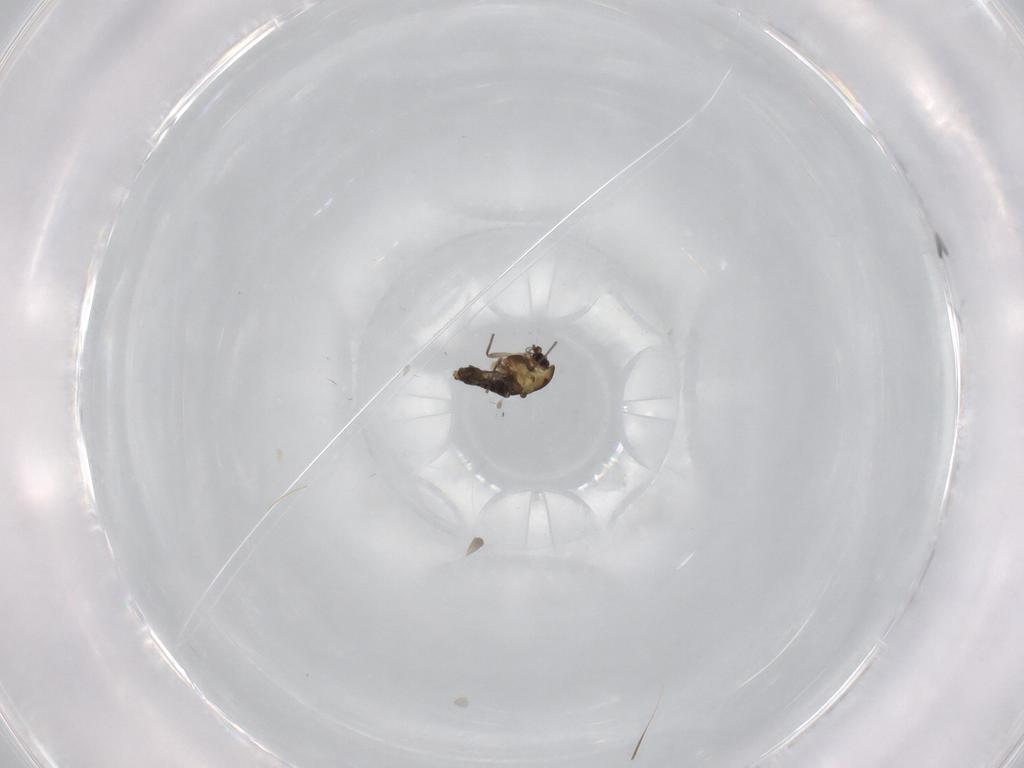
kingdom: Animalia
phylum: Arthropoda
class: Insecta
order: Diptera
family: Chironomidae
